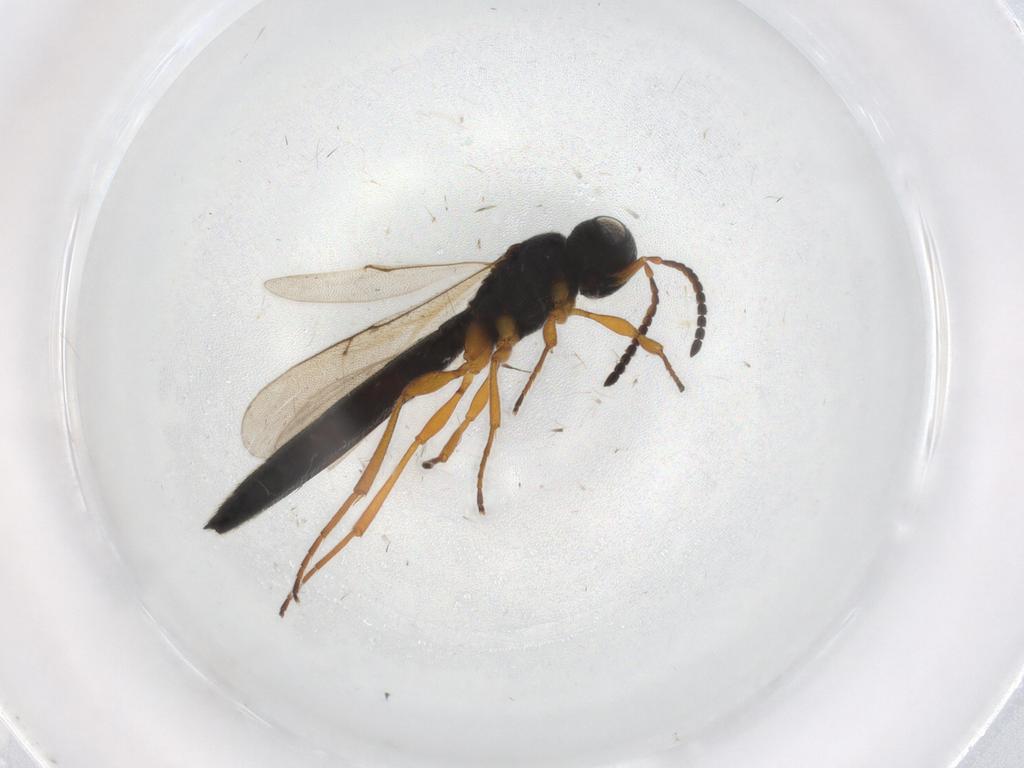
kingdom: Animalia
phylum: Arthropoda
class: Insecta
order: Hymenoptera
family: Scelionidae
